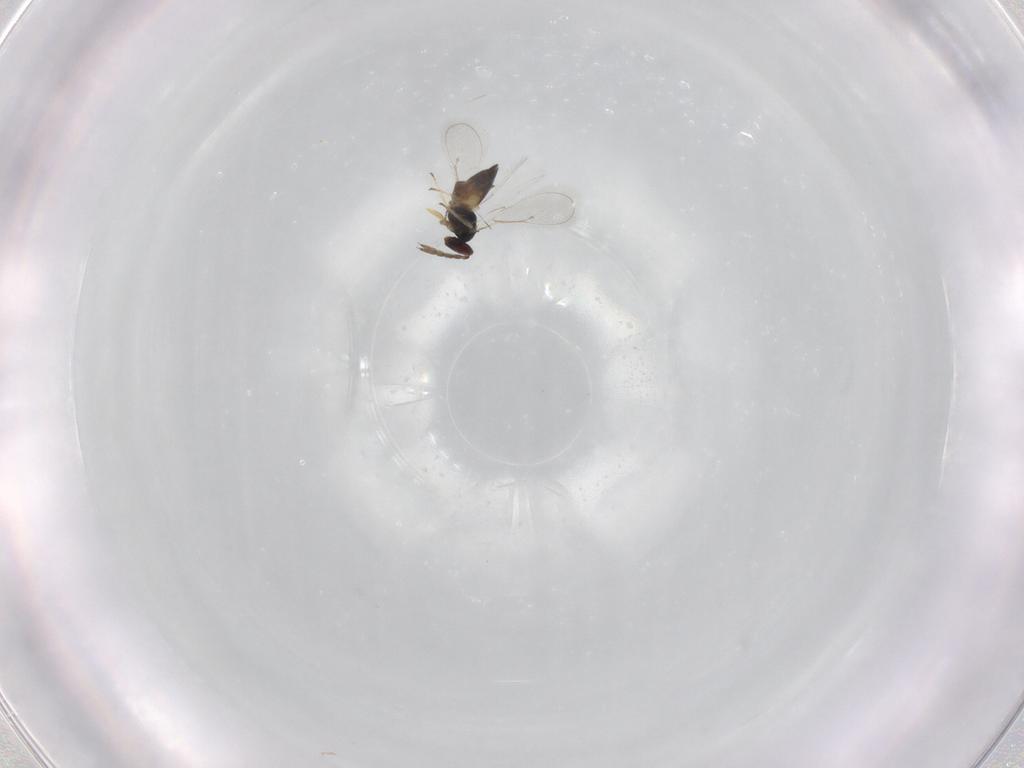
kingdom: Animalia
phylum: Arthropoda
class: Insecta
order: Hymenoptera
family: Eulophidae
